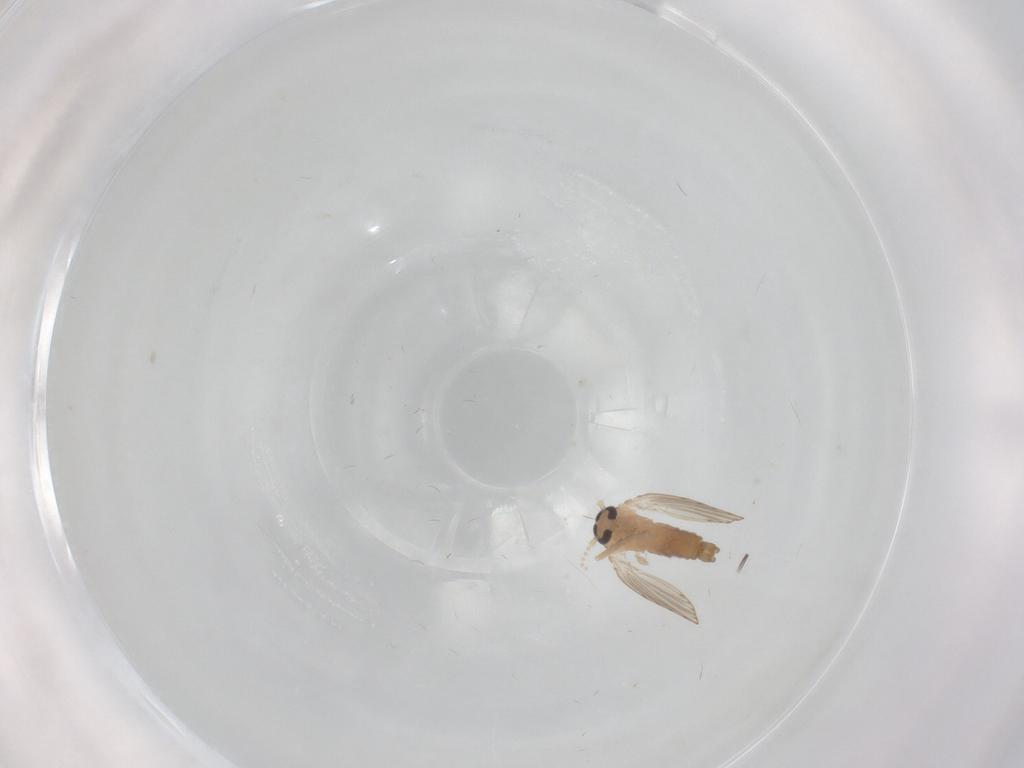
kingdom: Animalia
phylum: Arthropoda
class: Insecta
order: Diptera
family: Psychodidae
